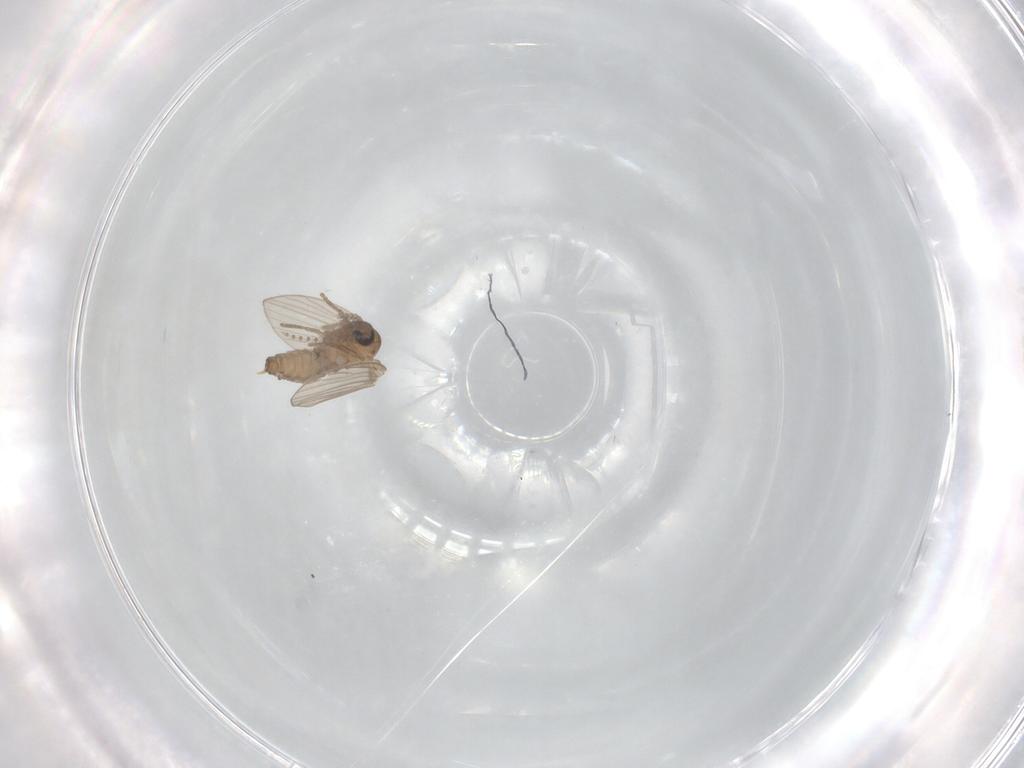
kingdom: Animalia
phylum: Arthropoda
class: Insecta
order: Diptera
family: Psychodidae
